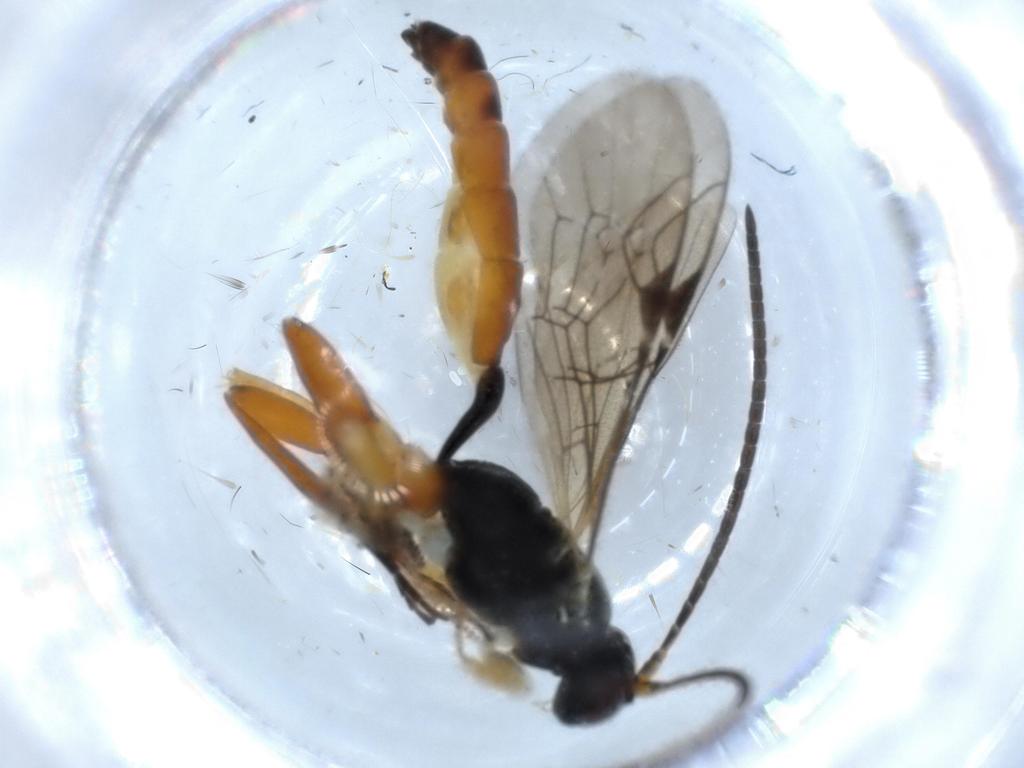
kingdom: Animalia
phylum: Arthropoda
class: Insecta
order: Hymenoptera
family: Ichneumonidae
